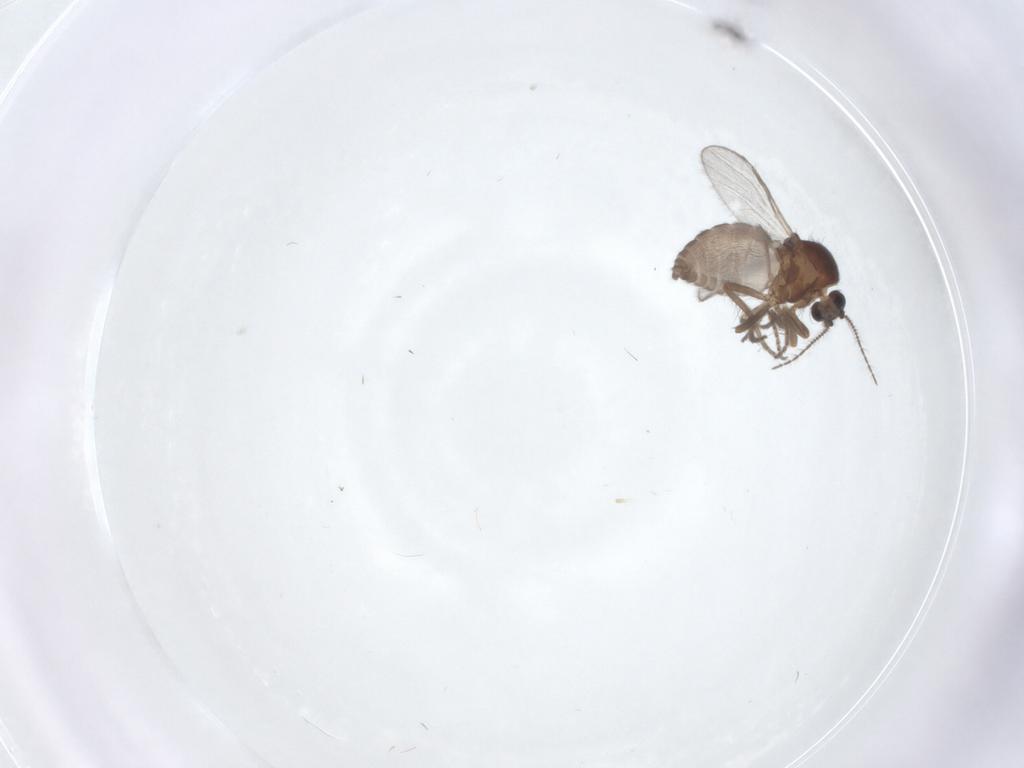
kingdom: Animalia
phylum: Arthropoda
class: Insecta
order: Diptera
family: Ceratopogonidae
